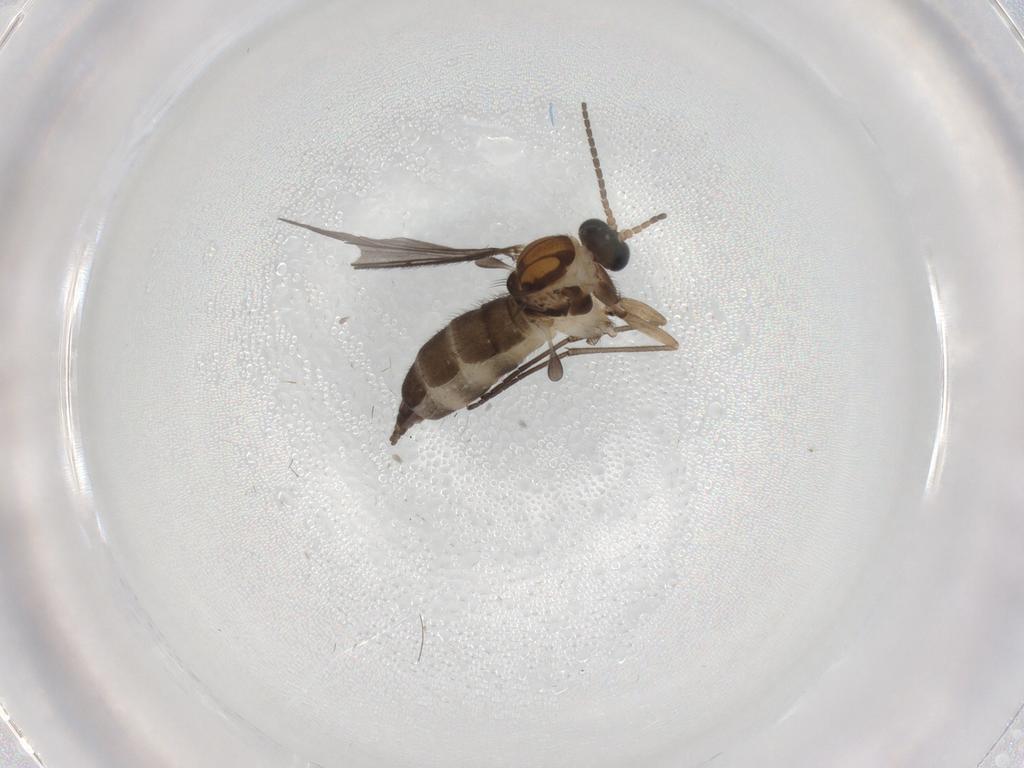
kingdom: Animalia
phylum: Arthropoda
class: Insecta
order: Diptera
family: Sciaridae
